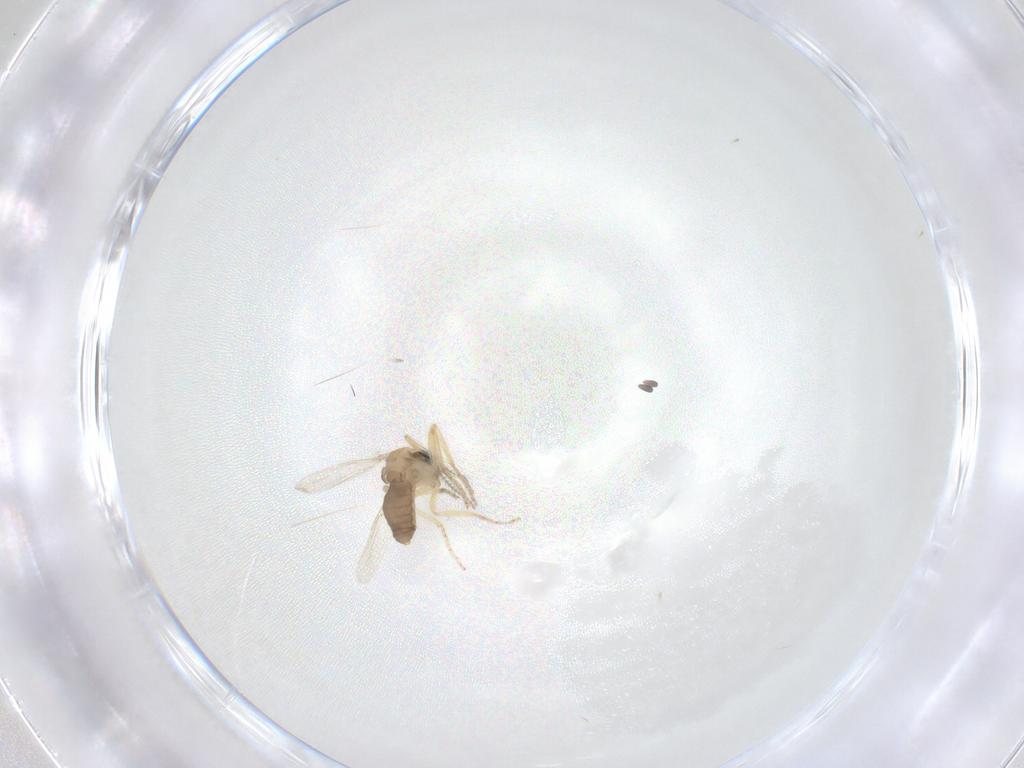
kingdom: Animalia
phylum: Arthropoda
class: Insecta
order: Diptera
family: Ceratopogonidae
